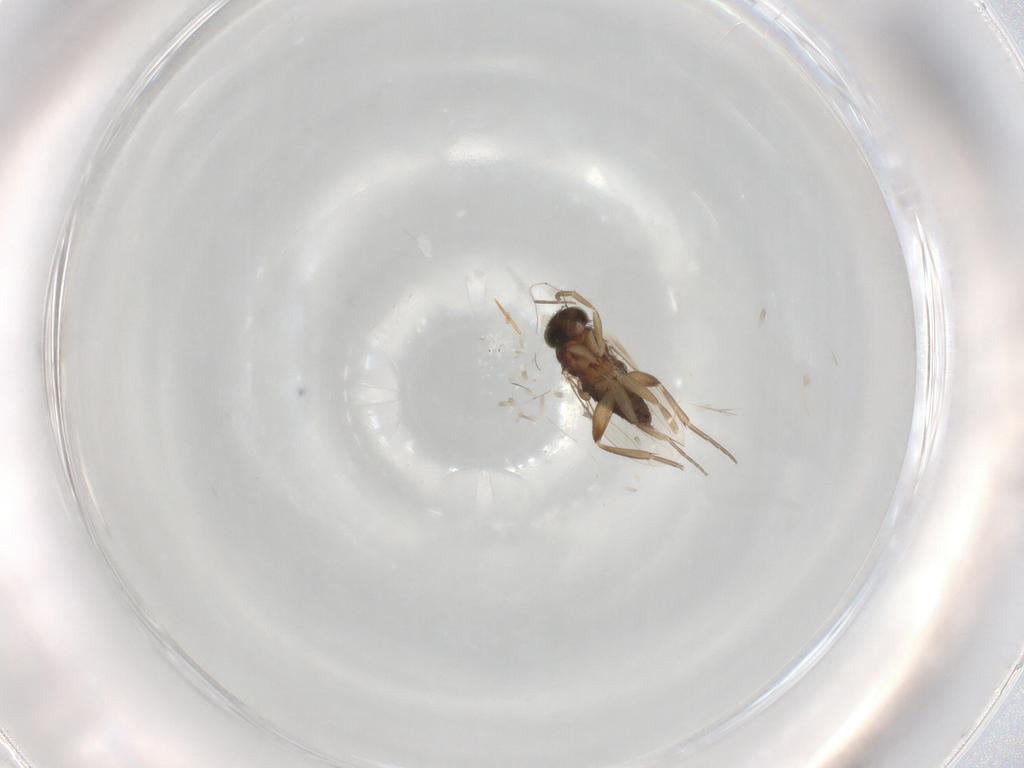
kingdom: Animalia
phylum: Arthropoda
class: Insecta
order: Diptera
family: Phoridae
